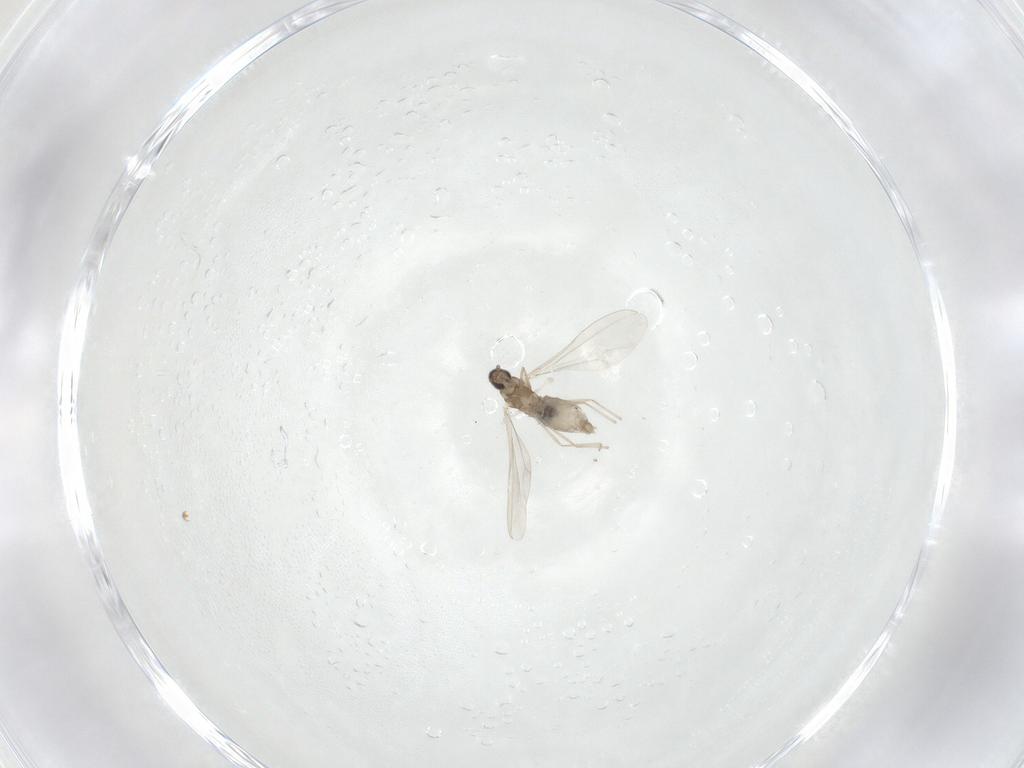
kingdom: Animalia
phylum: Arthropoda
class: Insecta
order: Diptera
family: Cecidomyiidae
